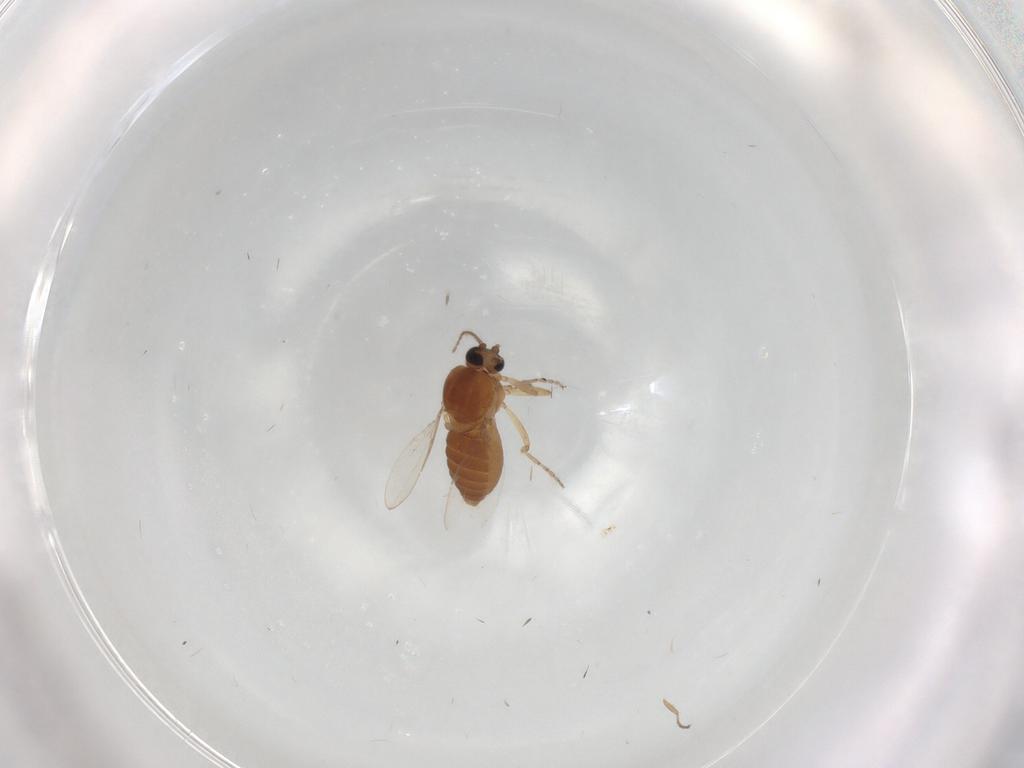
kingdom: Animalia
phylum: Arthropoda
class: Insecta
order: Diptera
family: Ceratopogonidae
